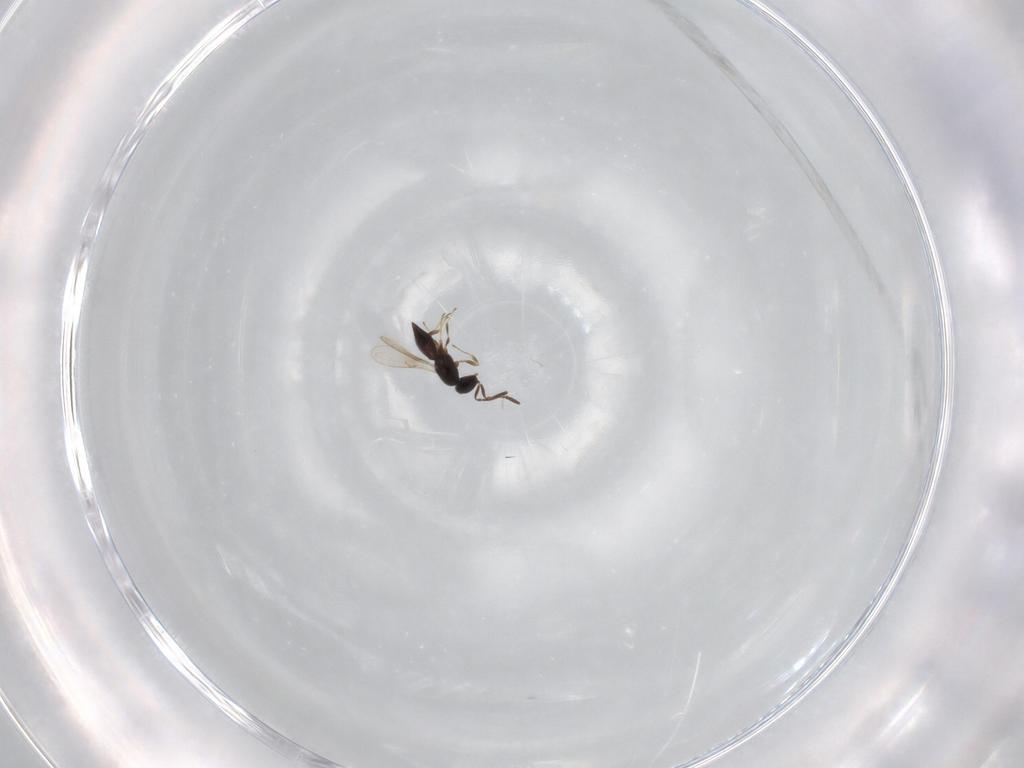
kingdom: Animalia
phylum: Arthropoda
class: Insecta
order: Hymenoptera
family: Scelionidae
